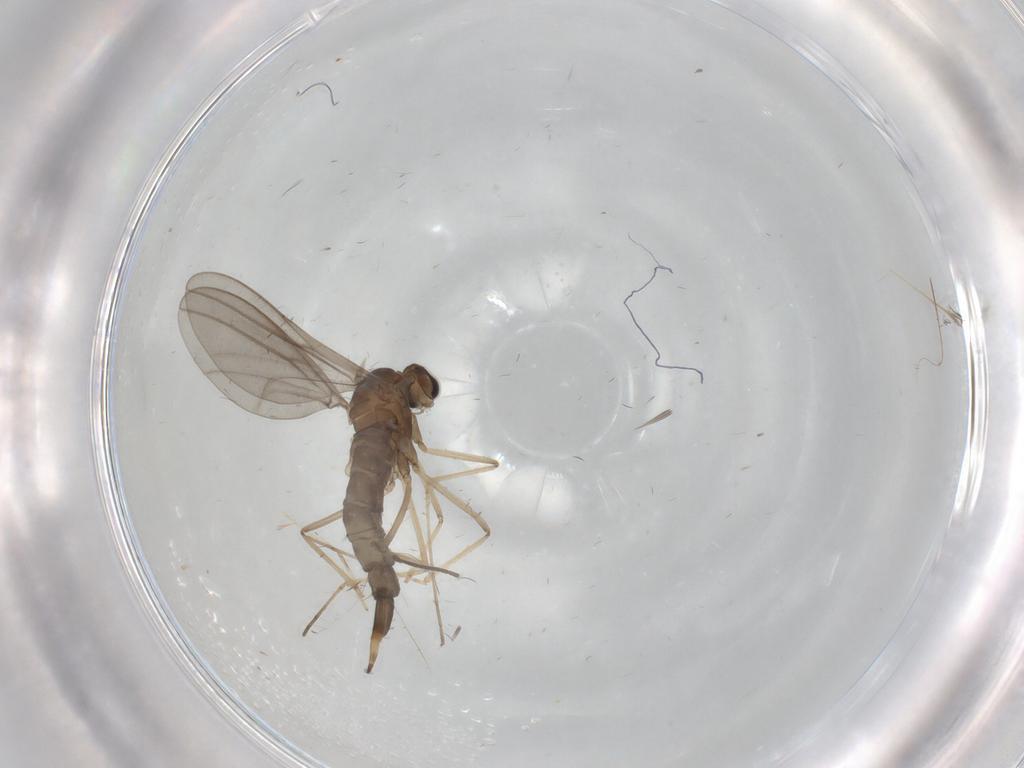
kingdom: Animalia
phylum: Arthropoda
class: Insecta
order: Diptera
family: Cecidomyiidae
